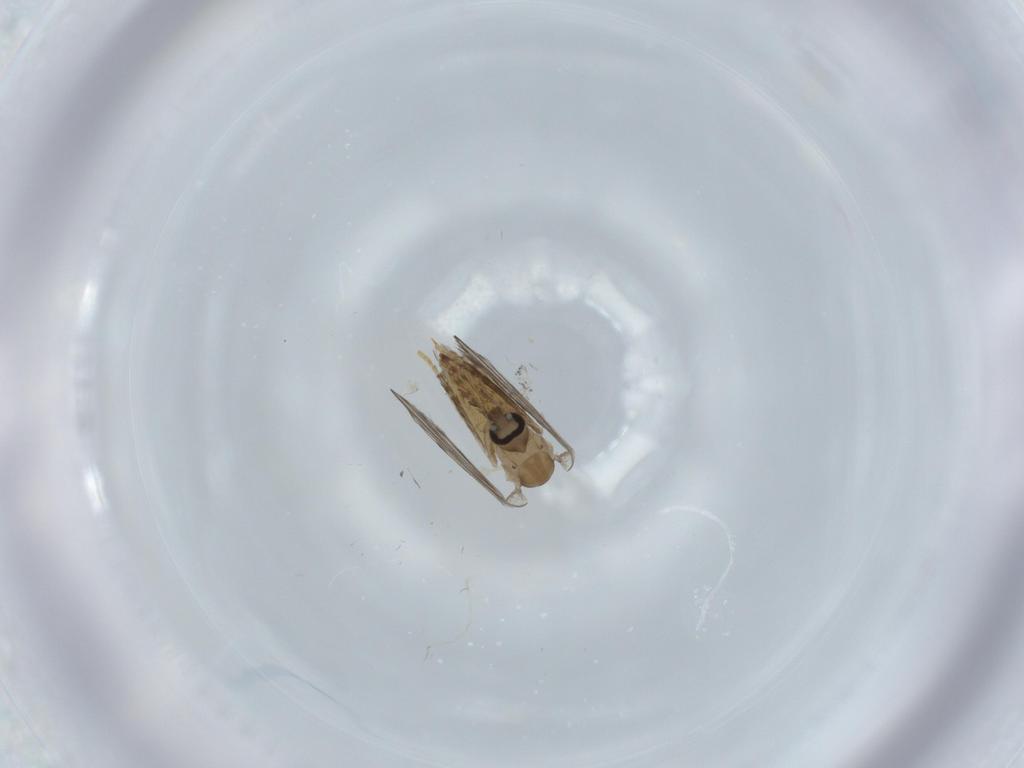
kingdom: Animalia
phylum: Arthropoda
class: Insecta
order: Diptera
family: Psychodidae
